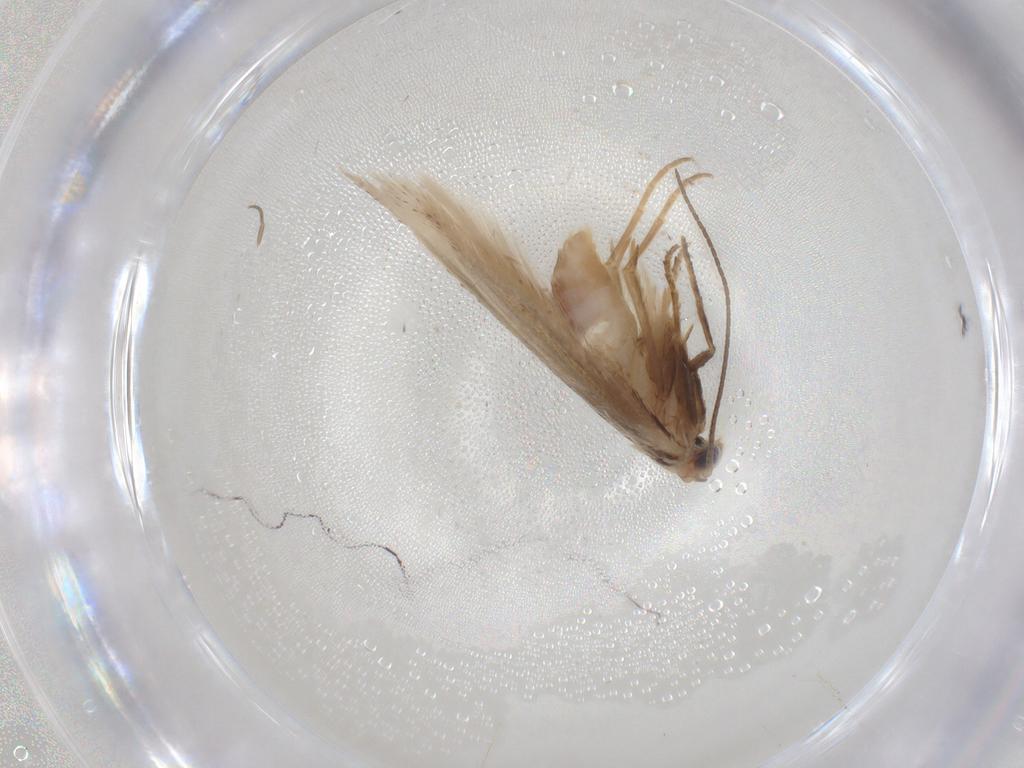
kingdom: Animalia
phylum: Arthropoda
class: Insecta
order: Lepidoptera
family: Bucculatricidae
